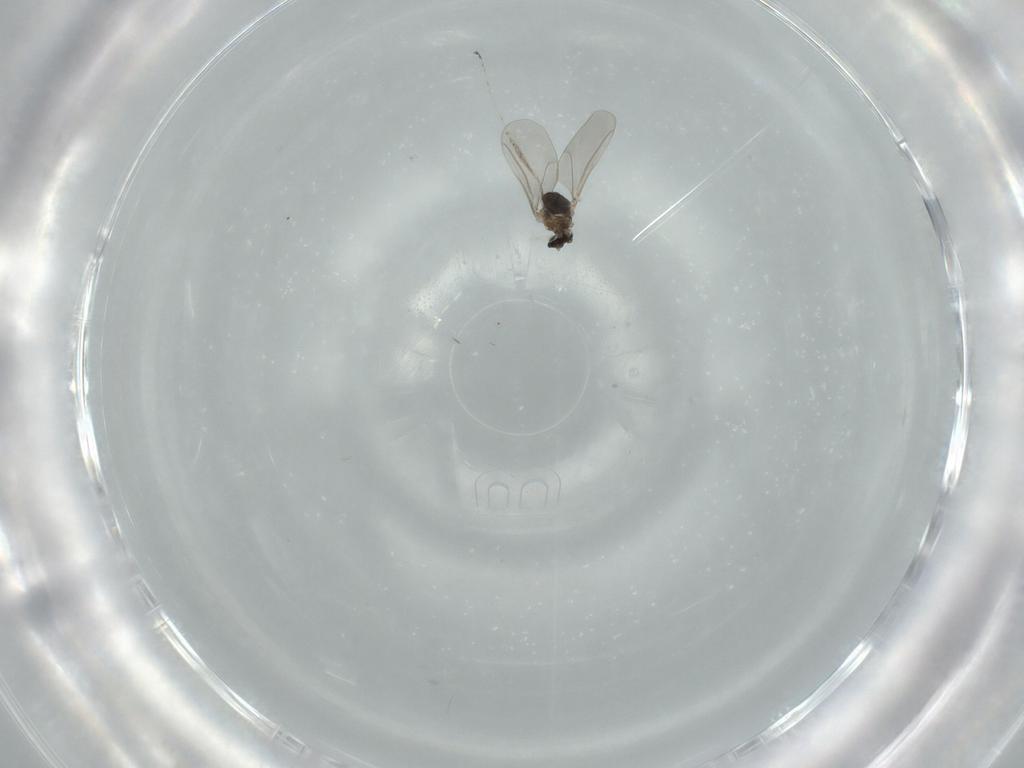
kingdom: Animalia
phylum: Arthropoda
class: Insecta
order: Diptera
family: Cecidomyiidae
